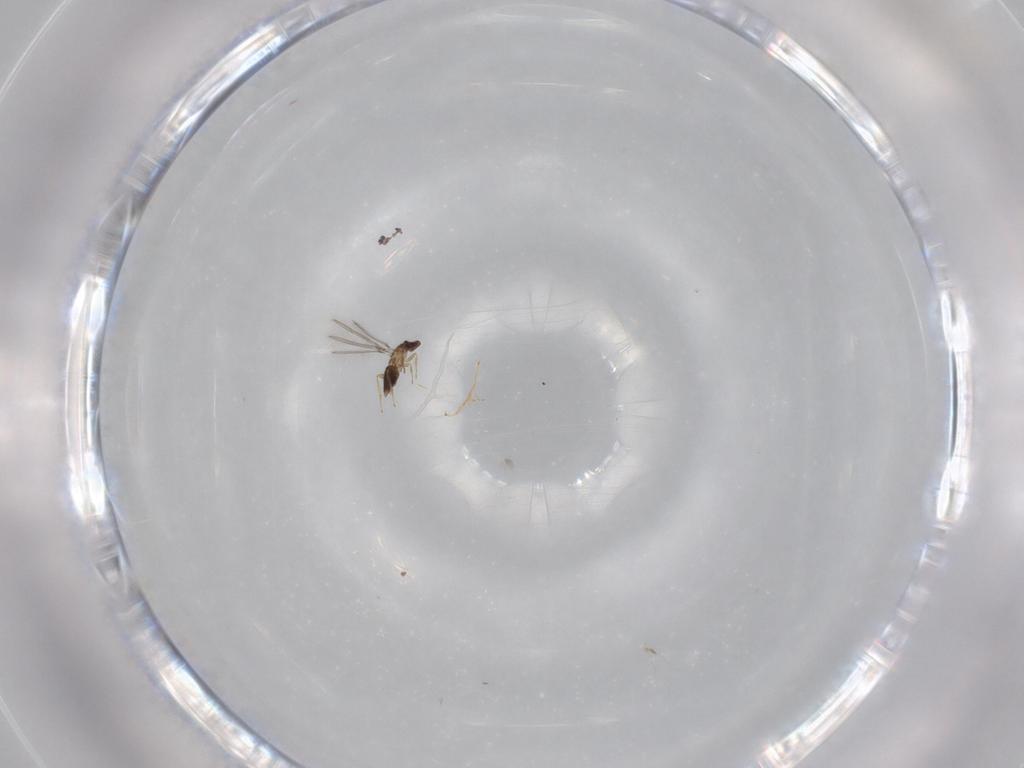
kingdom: Animalia
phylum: Arthropoda
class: Insecta
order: Hymenoptera
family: Mymaridae
